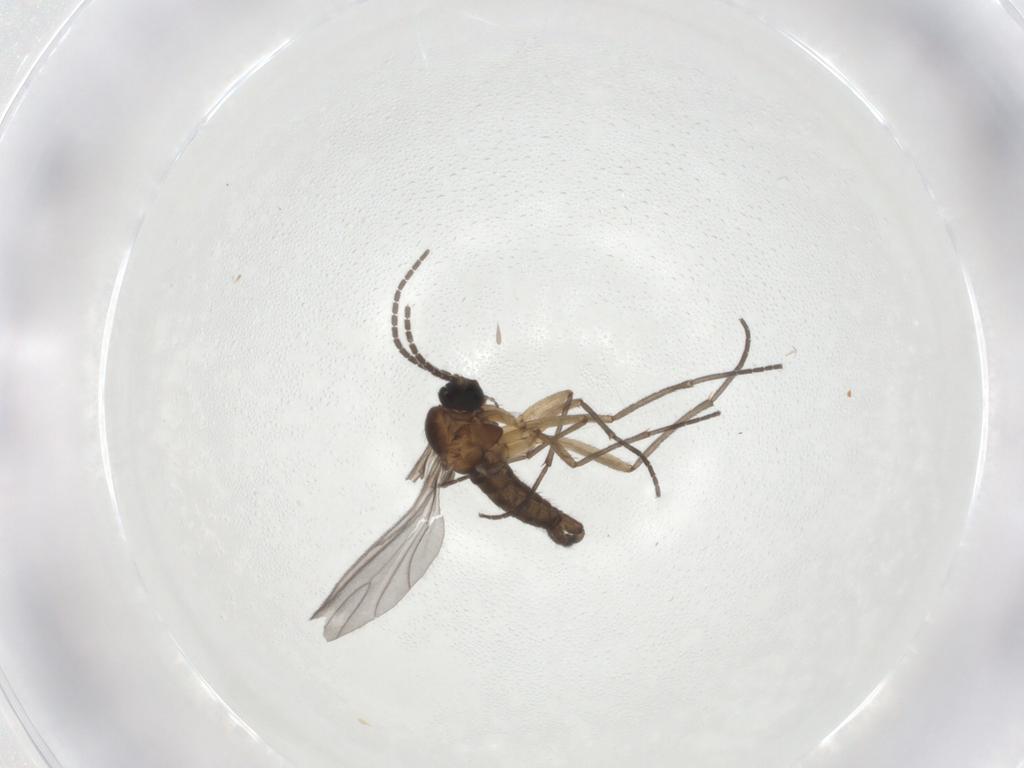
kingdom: Animalia
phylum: Arthropoda
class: Insecta
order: Diptera
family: Sciaridae
